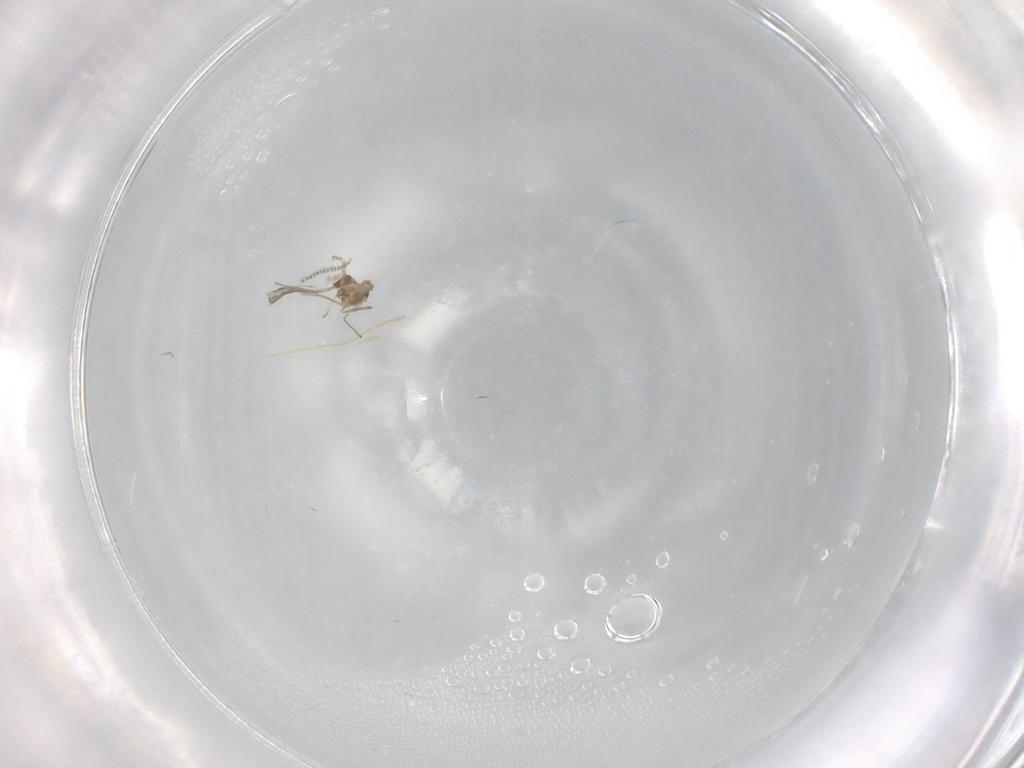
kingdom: Animalia
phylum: Arthropoda
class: Insecta
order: Diptera
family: Cecidomyiidae
